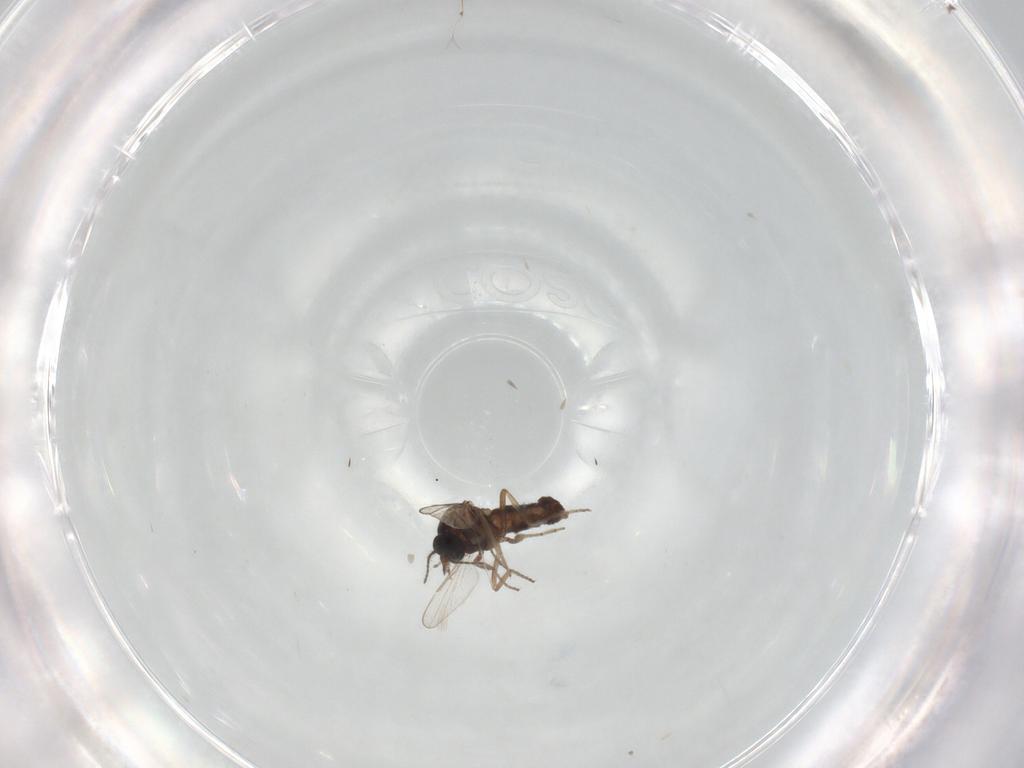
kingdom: Animalia
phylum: Arthropoda
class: Insecta
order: Diptera
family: Ceratopogonidae
